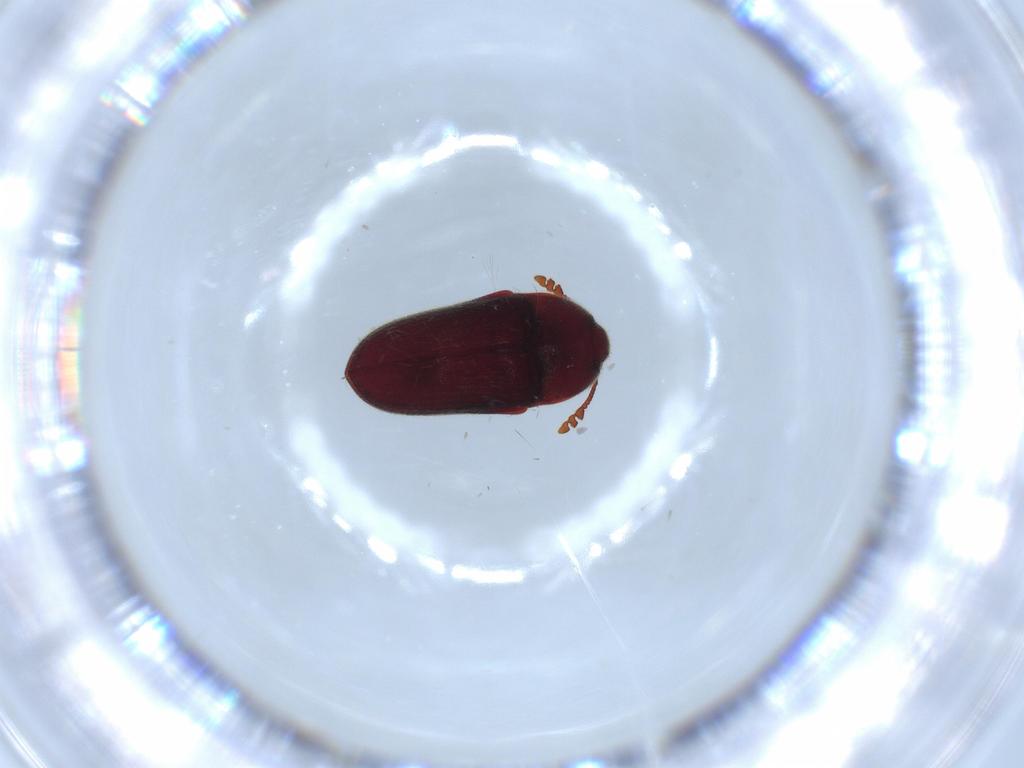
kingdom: Animalia
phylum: Arthropoda
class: Insecta
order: Coleoptera
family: Throscidae
